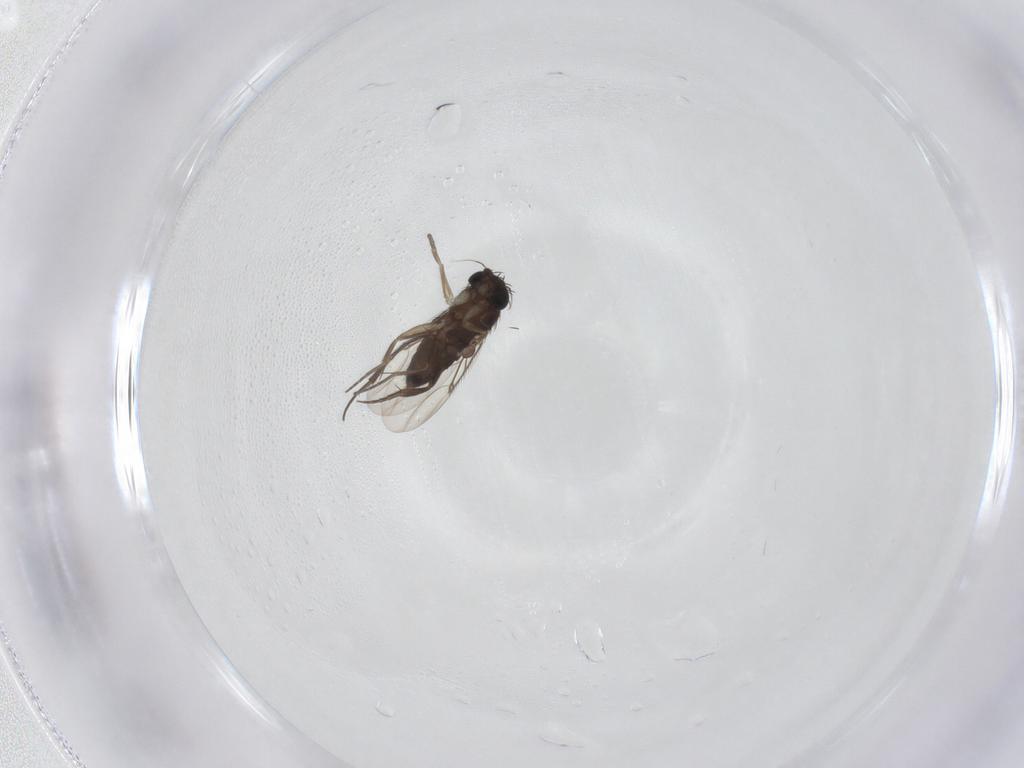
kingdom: Animalia
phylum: Arthropoda
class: Insecta
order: Diptera
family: Phoridae
